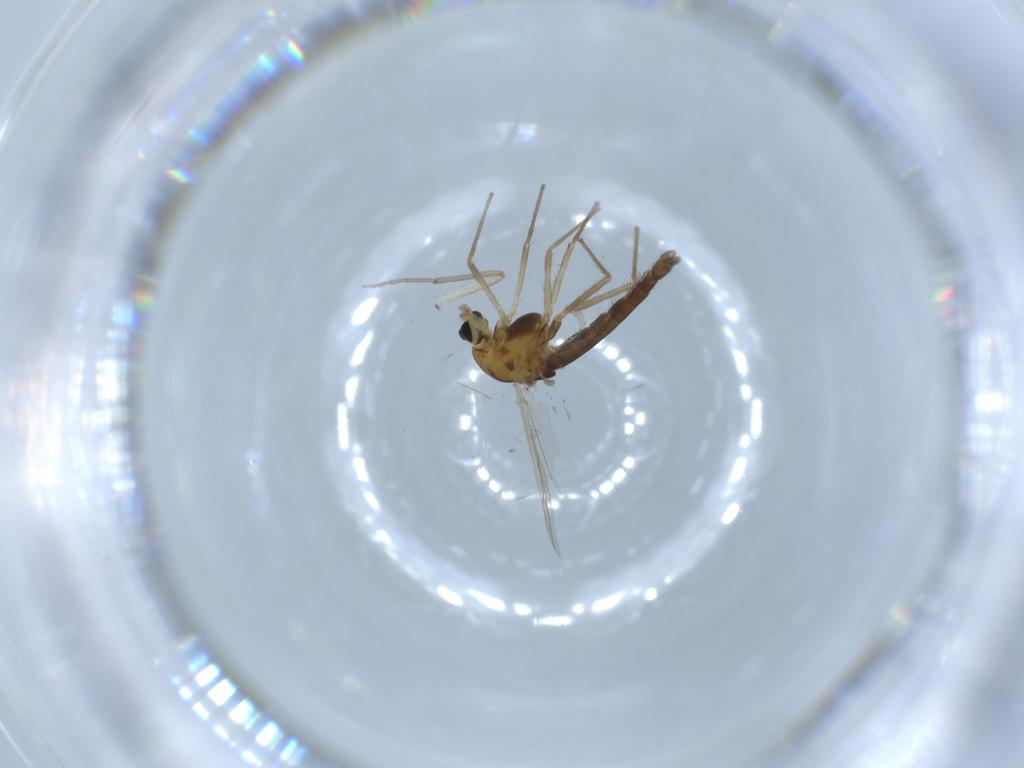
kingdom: Animalia
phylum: Arthropoda
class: Insecta
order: Diptera
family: Chironomidae
